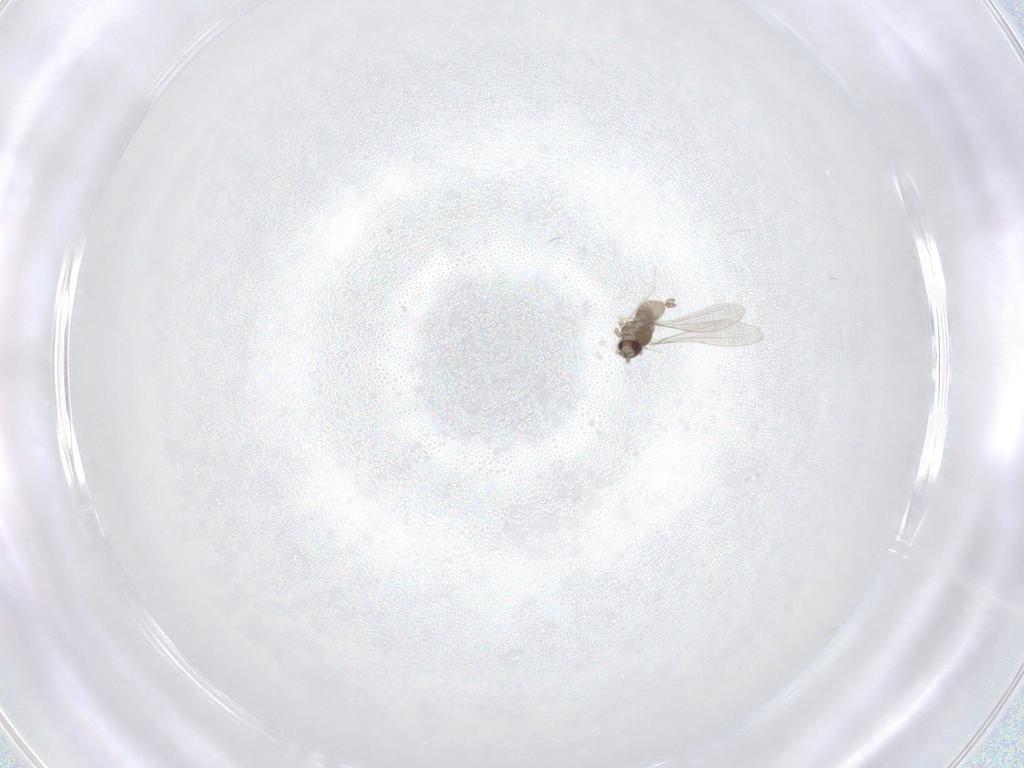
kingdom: Animalia
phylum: Arthropoda
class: Insecta
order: Diptera
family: Cecidomyiidae
